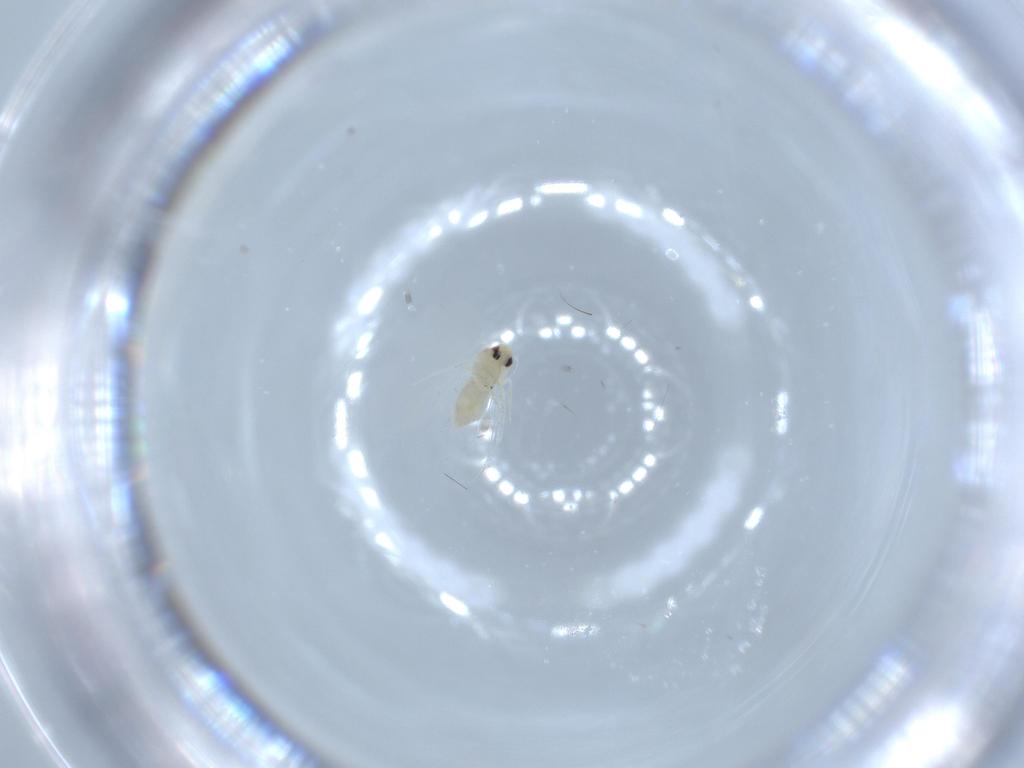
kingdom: Animalia
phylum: Arthropoda
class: Insecta
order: Hemiptera
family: Aleyrodidae
